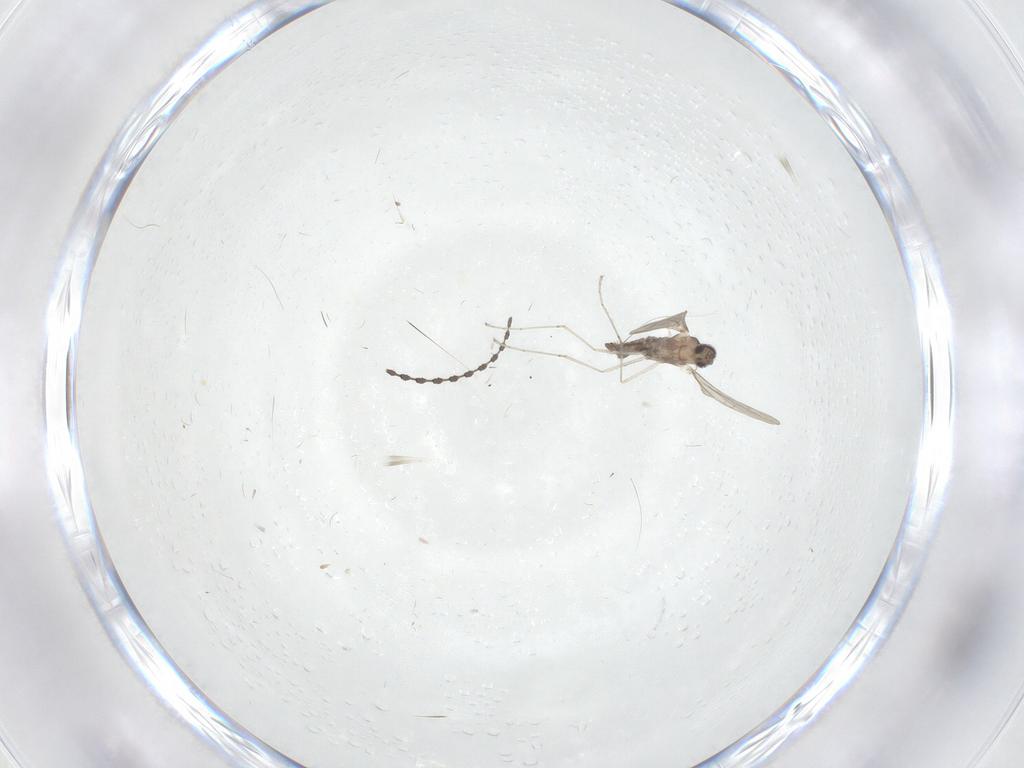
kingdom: Animalia
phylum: Arthropoda
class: Insecta
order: Diptera
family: Cecidomyiidae
